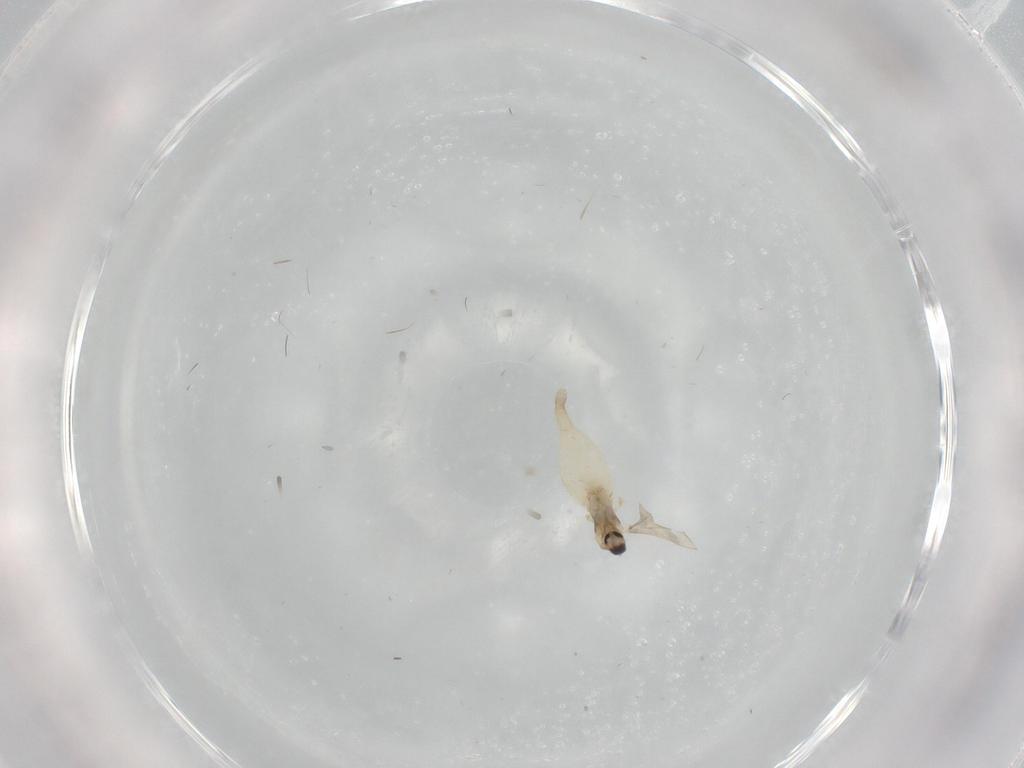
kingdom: Animalia
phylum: Arthropoda
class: Insecta
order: Diptera
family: Cecidomyiidae
